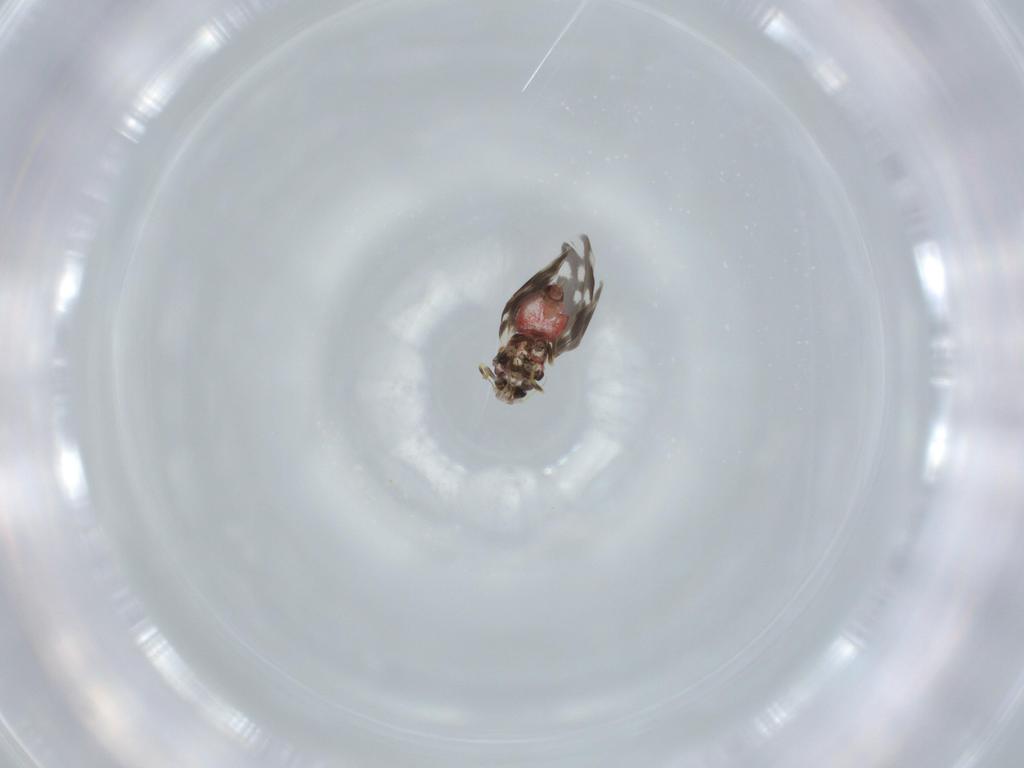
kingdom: Animalia
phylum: Arthropoda
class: Insecta
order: Hemiptera
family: Aleyrodidae
